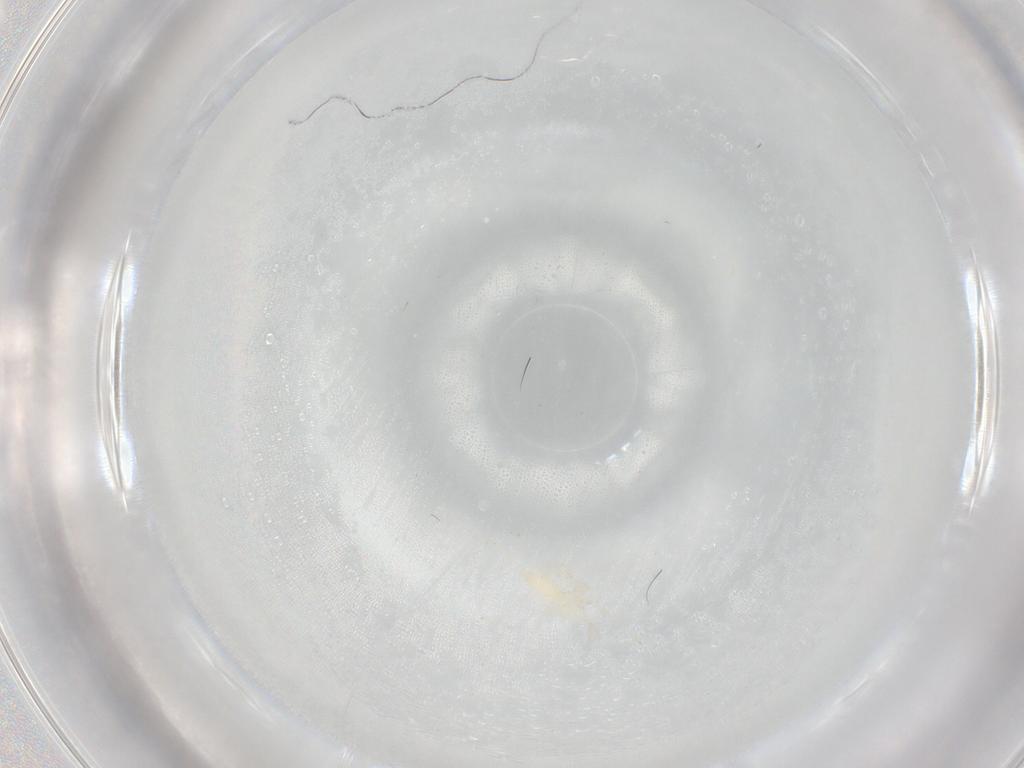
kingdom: Animalia
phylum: Arthropoda
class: Insecta
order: Diptera
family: Cecidomyiidae
